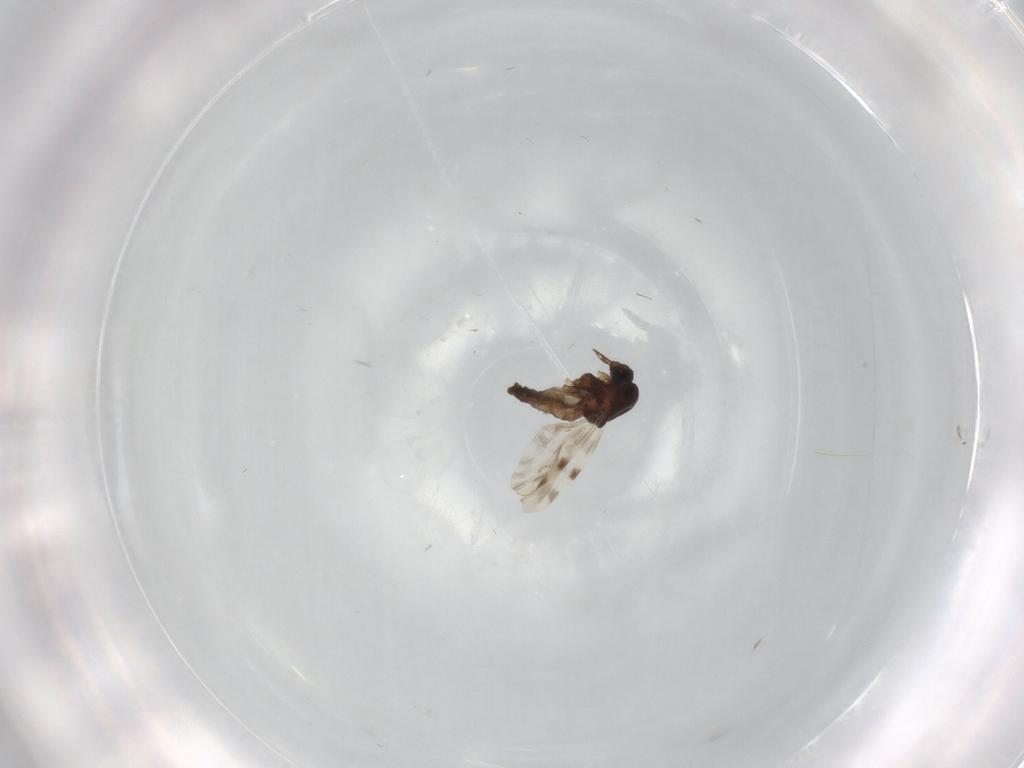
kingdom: Animalia
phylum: Arthropoda
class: Insecta
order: Diptera
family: Ceratopogonidae
